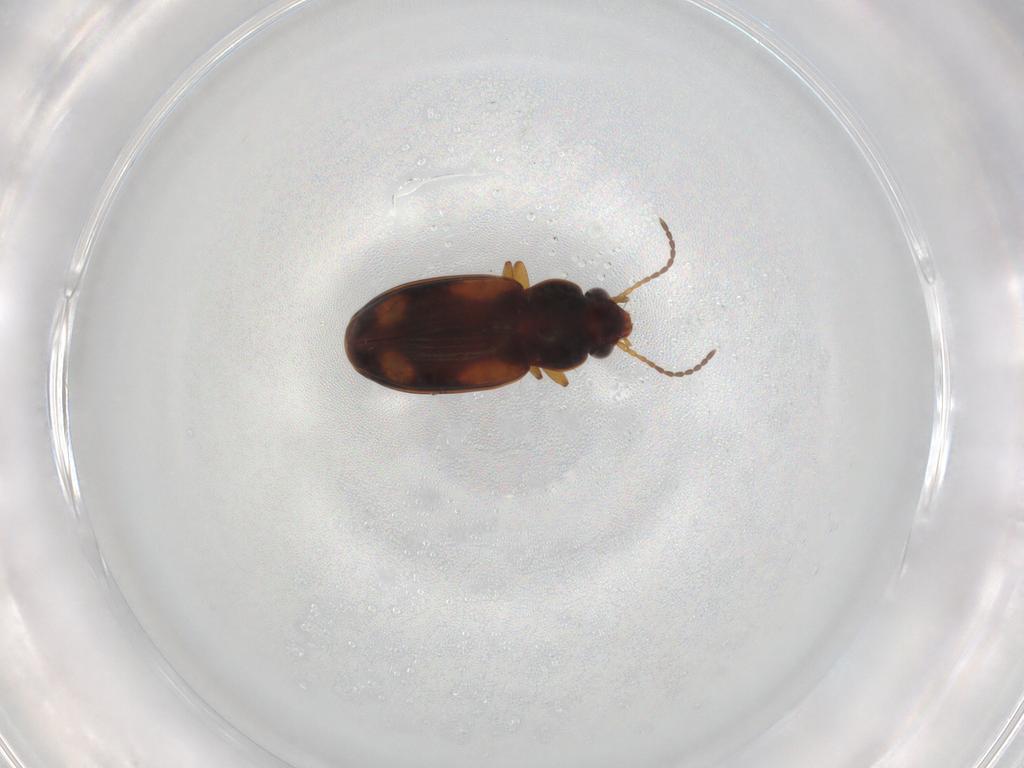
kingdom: Animalia
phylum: Arthropoda
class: Insecta
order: Coleoptera
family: Carabidae
